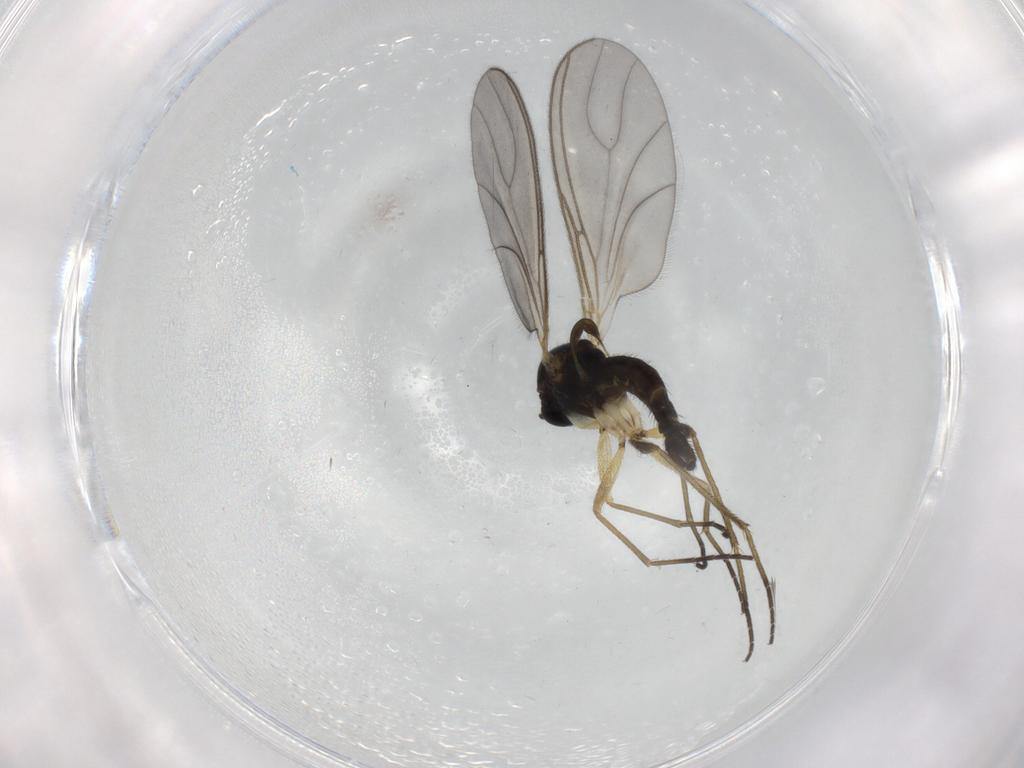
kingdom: Animalia
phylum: Arthropoda
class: Insecta
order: Diptera
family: Sciaridae
